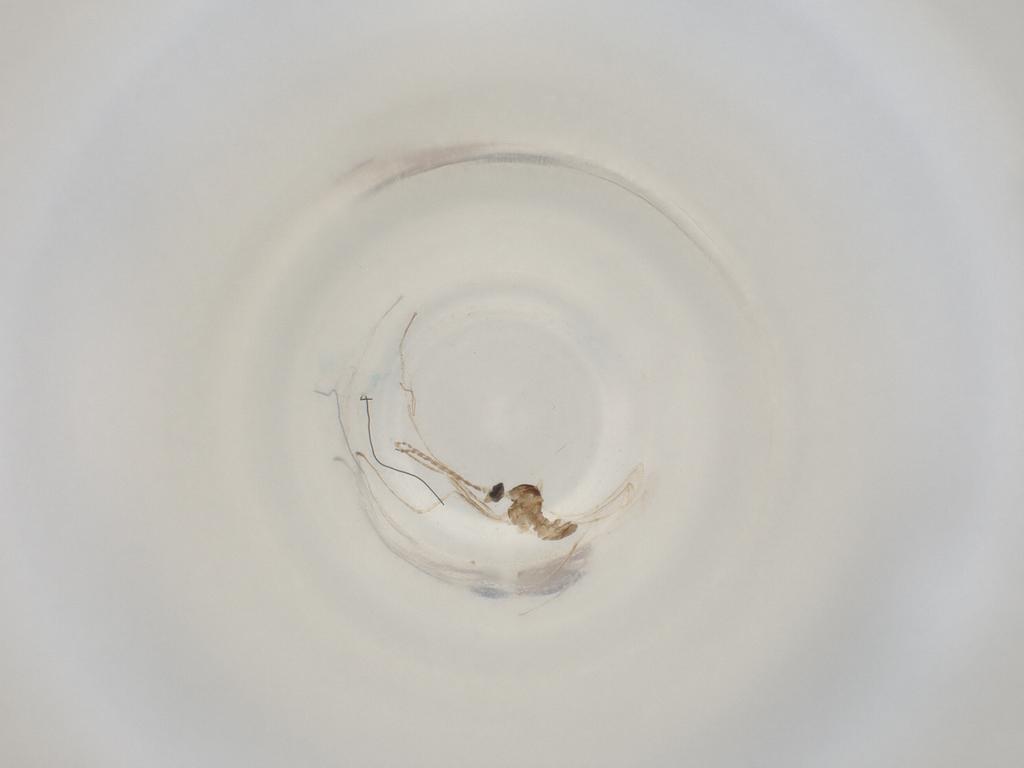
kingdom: Animalia
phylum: Arthropoda
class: Insecta
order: Diptera
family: Cecidomyiidae
